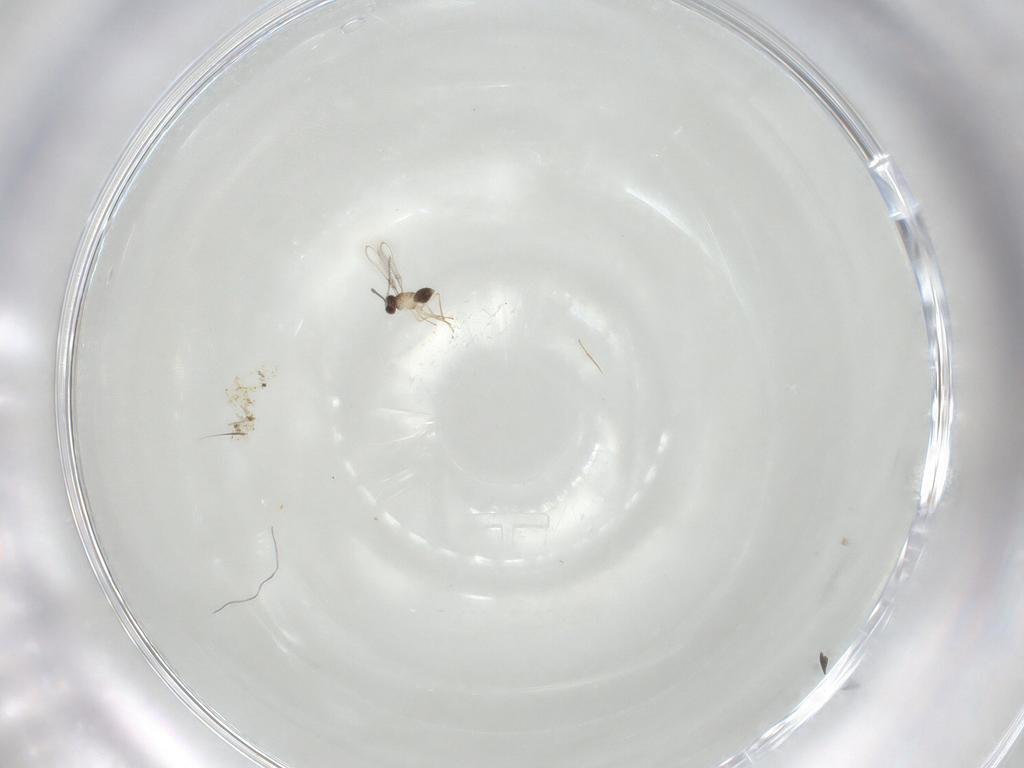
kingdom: Animalia
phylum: Arthropoda
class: Insecta
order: Hymenoptera
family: Mymaridae
